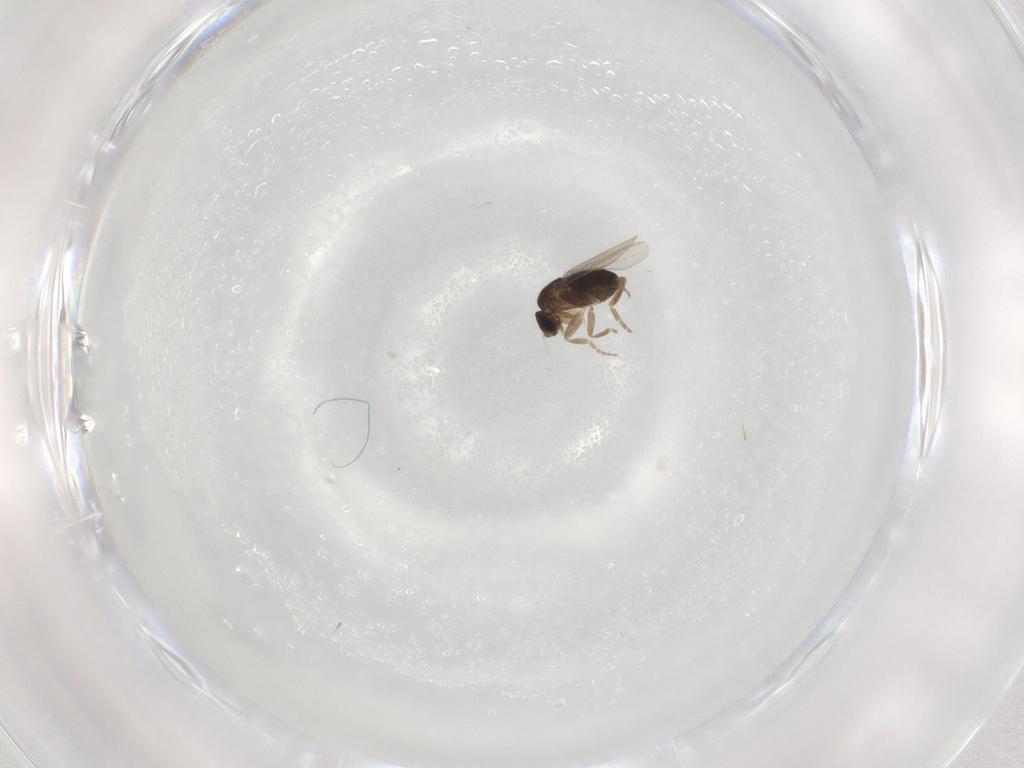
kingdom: Animalia
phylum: Arthropoda
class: Insecta
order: Diptera
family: Phoridae
